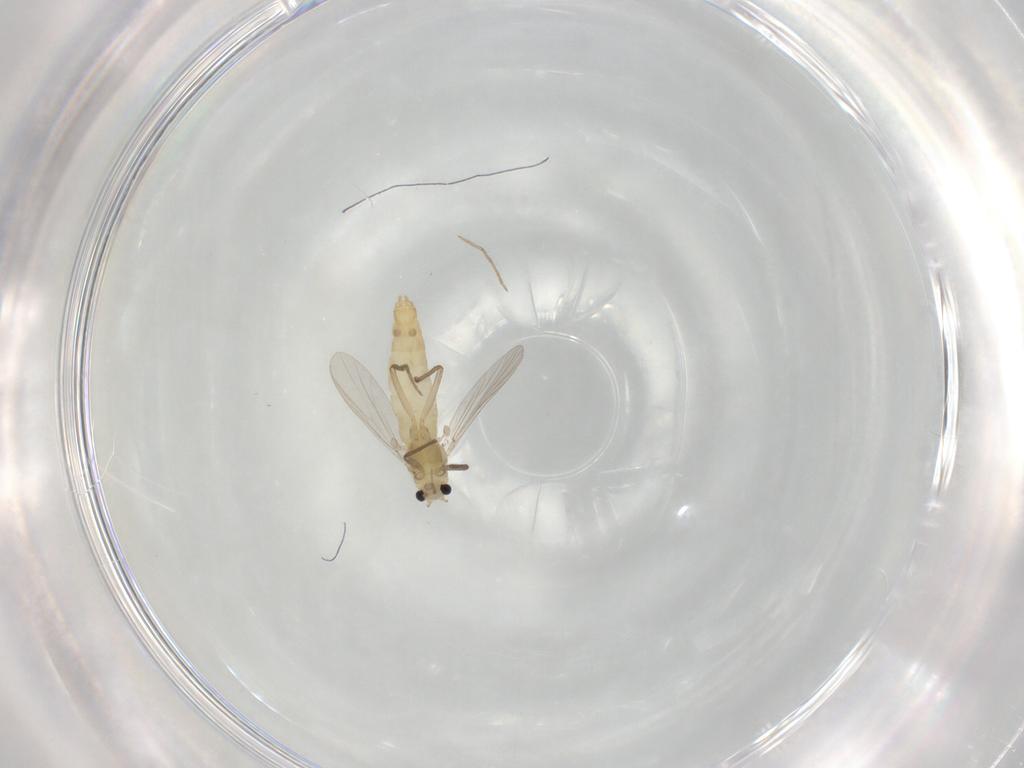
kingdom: Animalia
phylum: Arthropoda
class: Insecta
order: Diptera
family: Chironomidae
